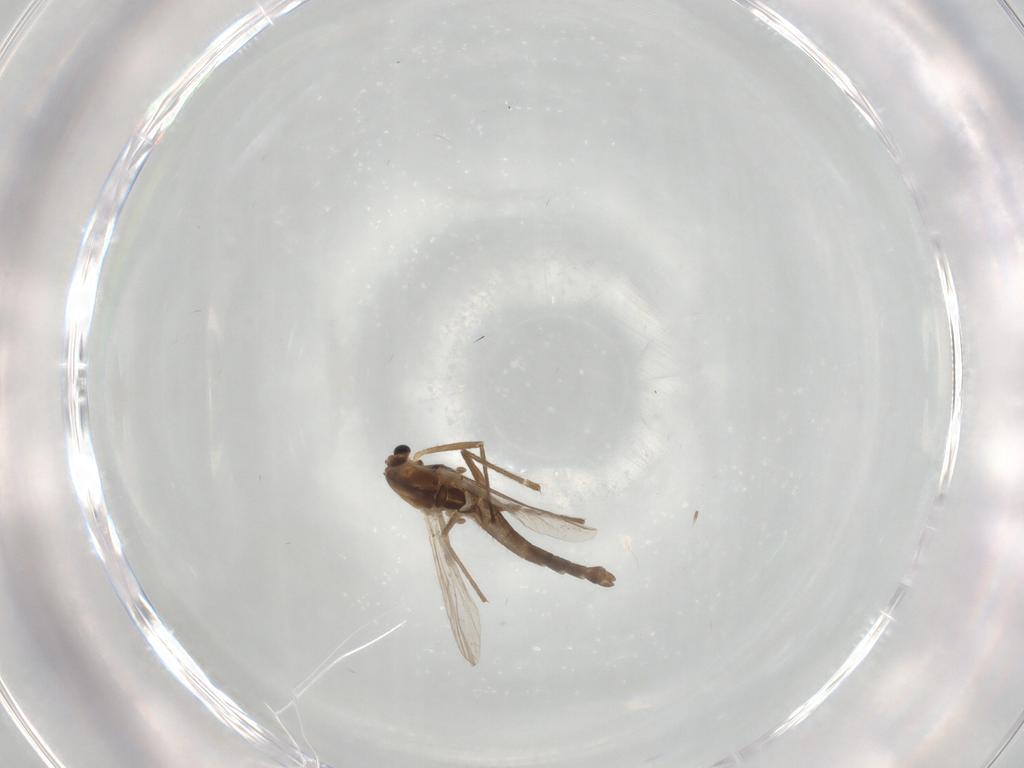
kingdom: Animalia
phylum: Arthropoda
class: Insecta
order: Diptera
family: Chironomidae
